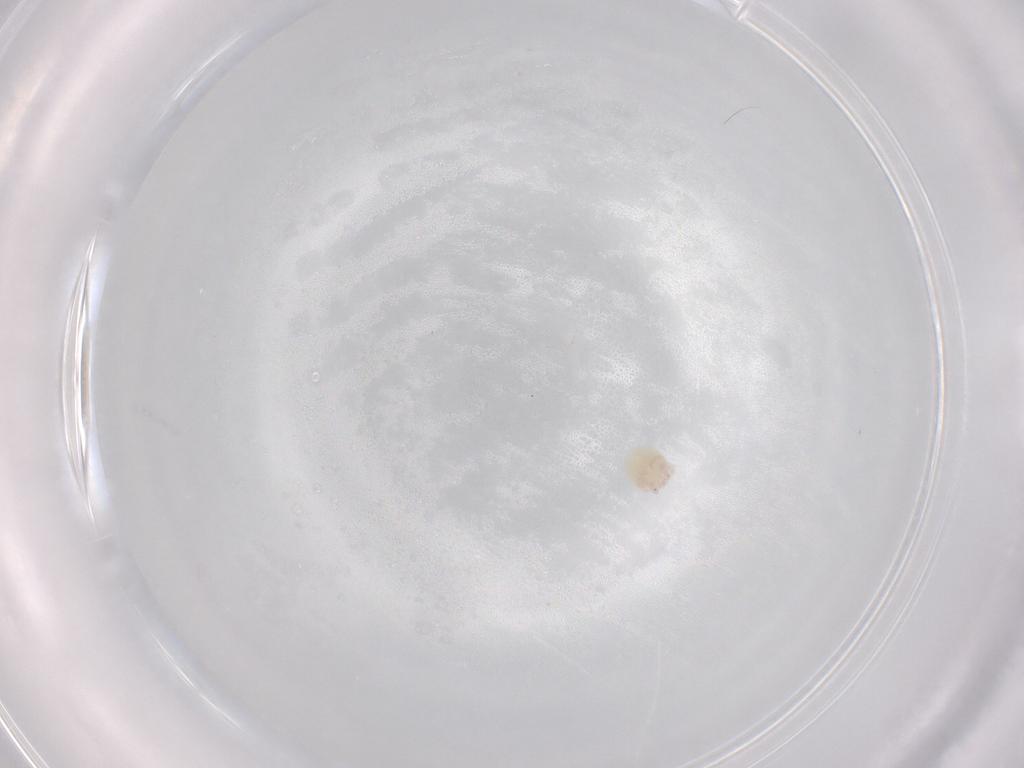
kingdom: Animalia
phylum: Arthropoda
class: Arachnida
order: Trombidiformes
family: Lebertiidae
